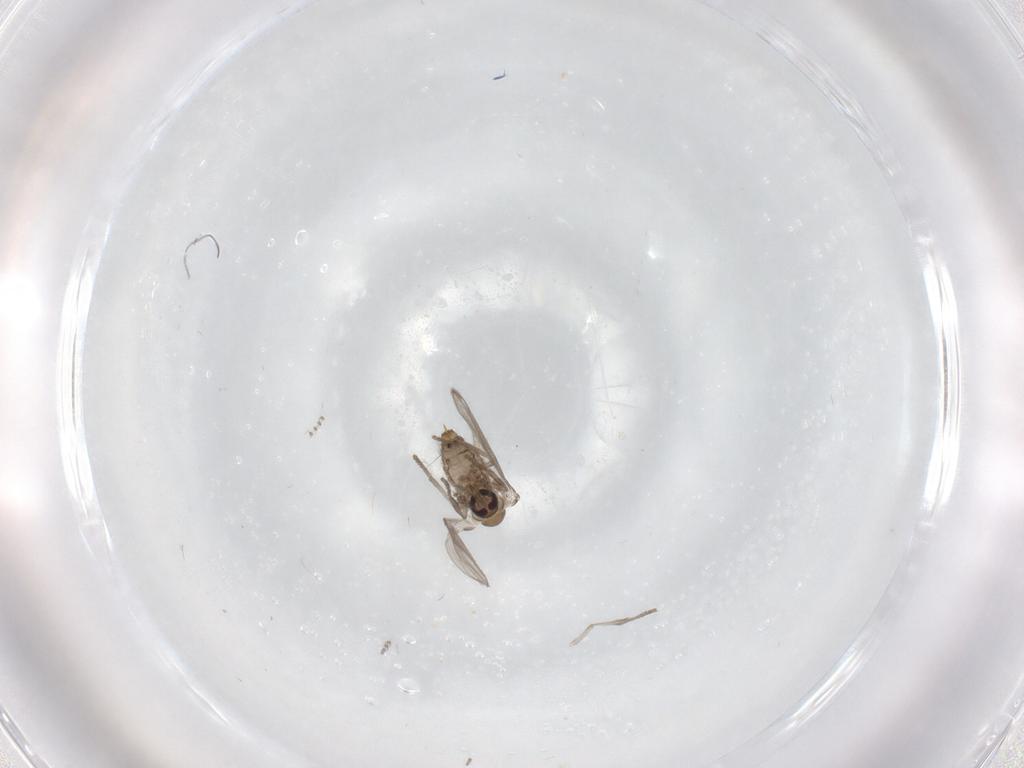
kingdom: Animalia
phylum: Arthropoda
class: Insecta
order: Diptera
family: Psychodidae
